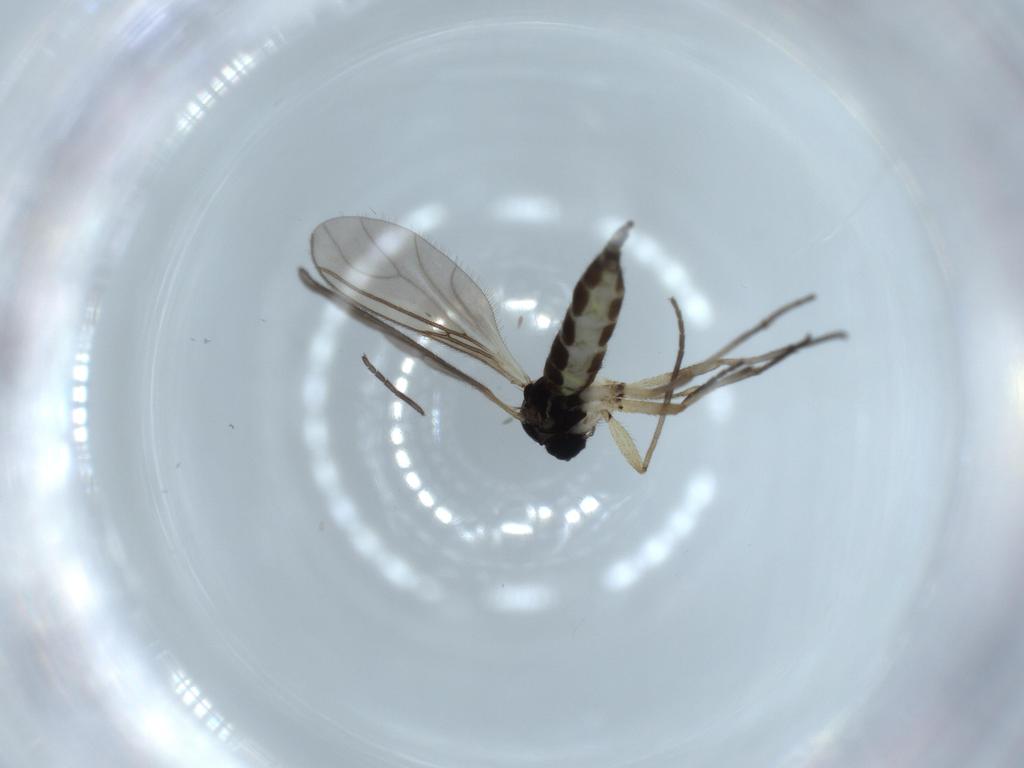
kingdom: Animalia
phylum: Arthropoda
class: Insecta
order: Diptera
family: Sciaridae
